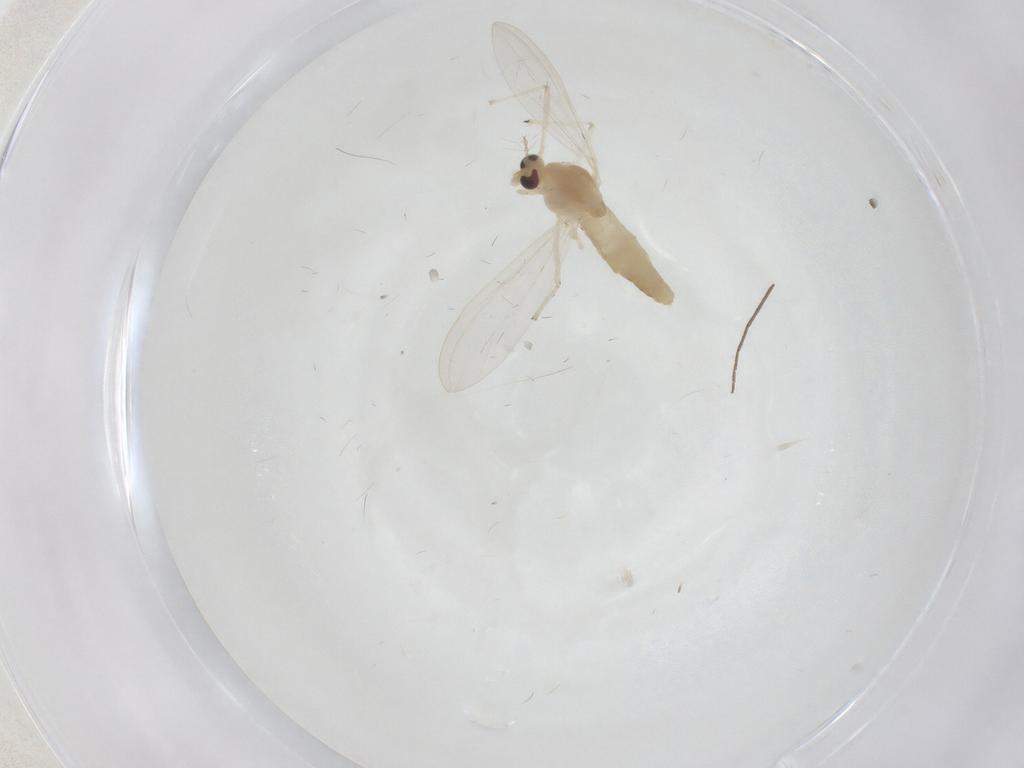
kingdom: Animalia
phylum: Arthropoda
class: Insecta
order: Diptera
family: Chironomidae
